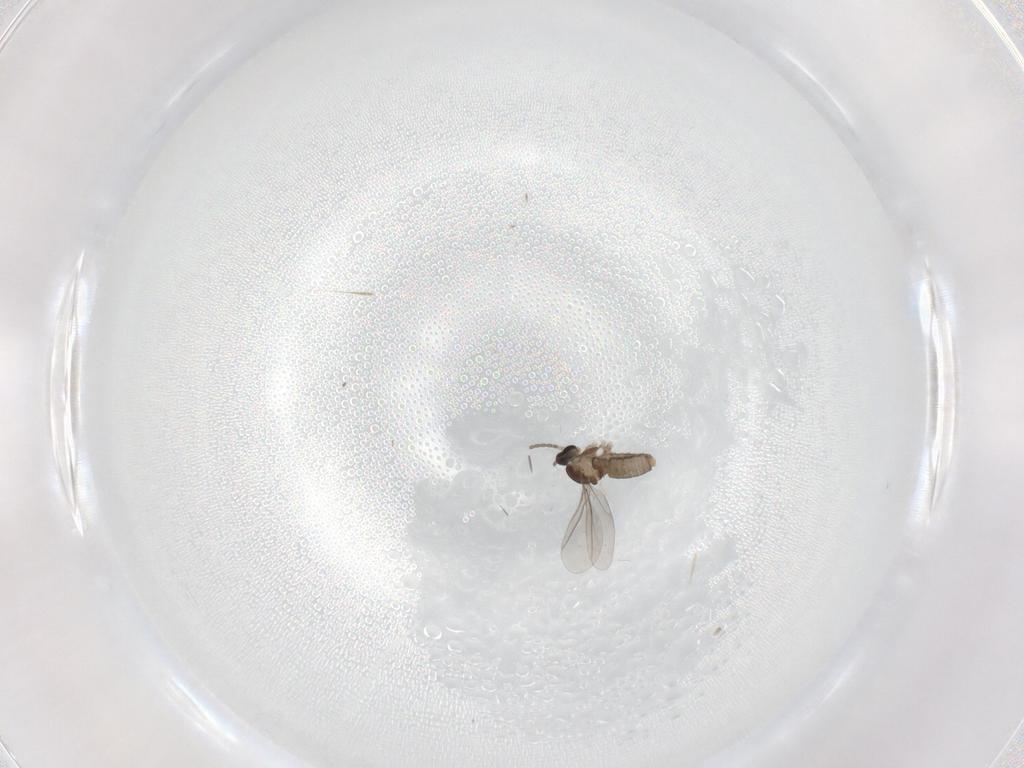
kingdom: Animalia
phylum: Arthropoda
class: Insecta
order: Diptera
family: Cecidomyiidae
